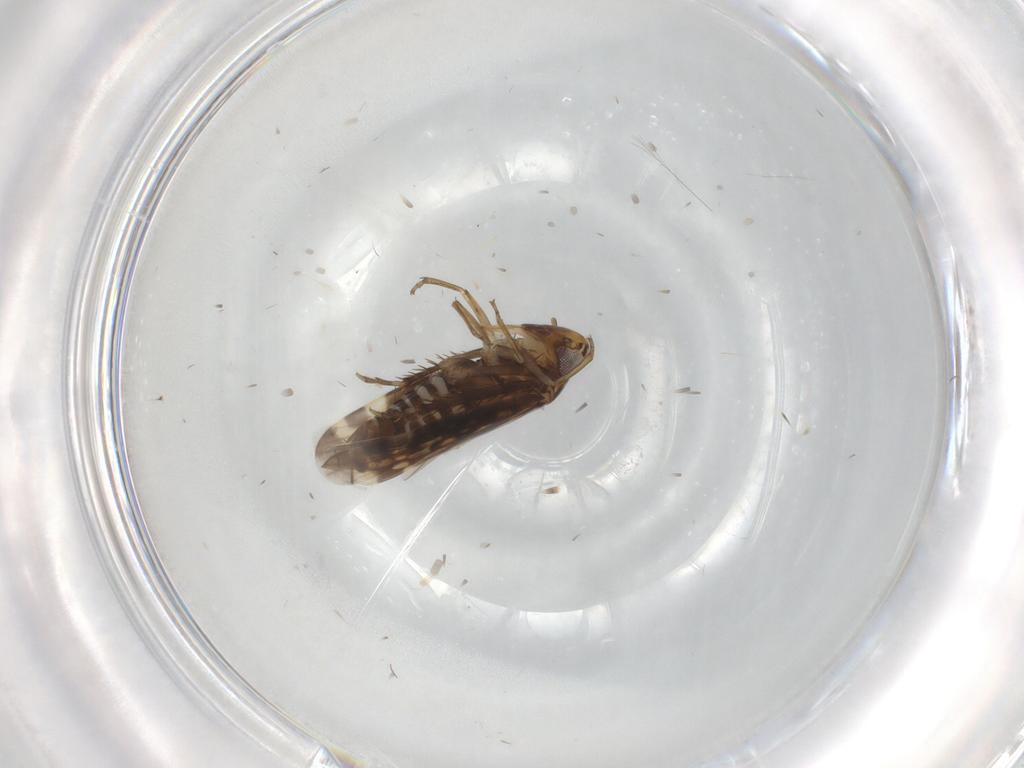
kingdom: Animalia
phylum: Arthropoda
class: Insecta
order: Hemiptera
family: Cicadellidae
